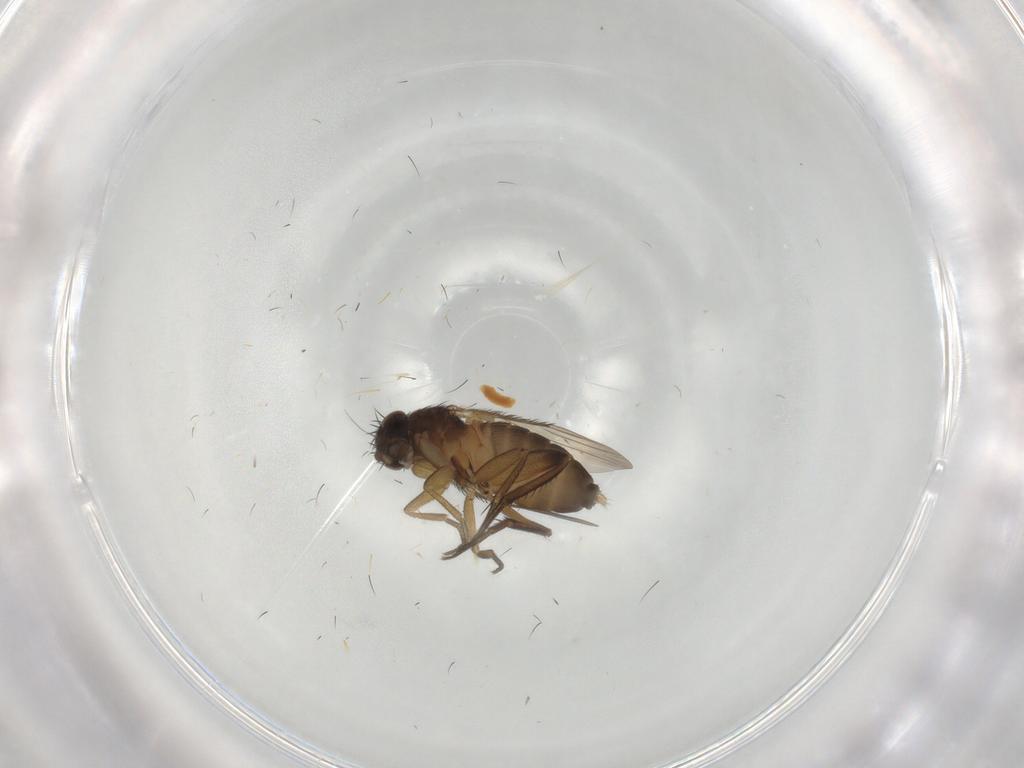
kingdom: Animalia
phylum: Arthropoda
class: Insecta
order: Diptera
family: Phoridae
